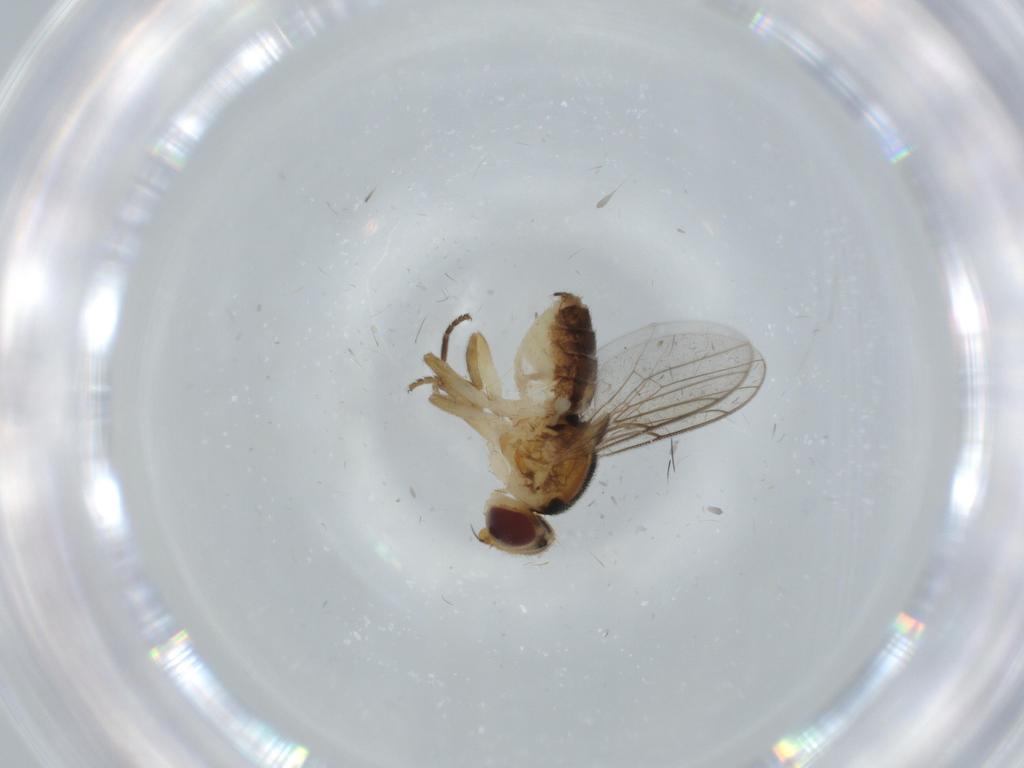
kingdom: Animalia
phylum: Arthropoda
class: Insecta
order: Diptera
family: Chloropidae
